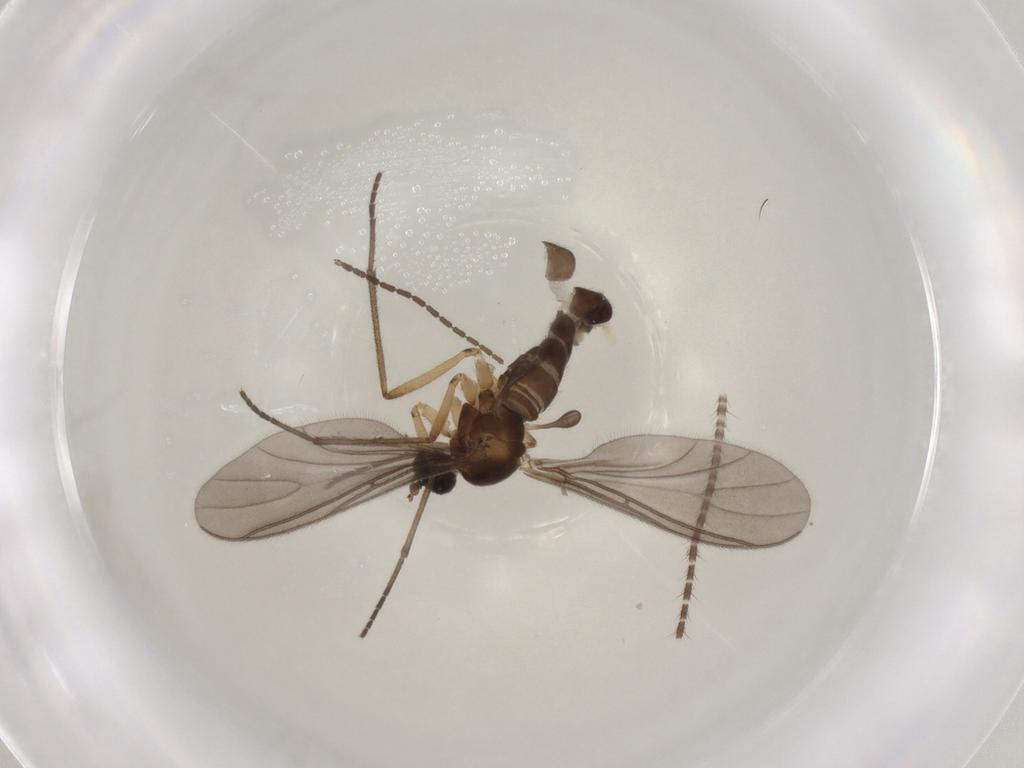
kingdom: Animalia
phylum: Arthropoda
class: Insecta
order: Diptera
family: Sciaridae
